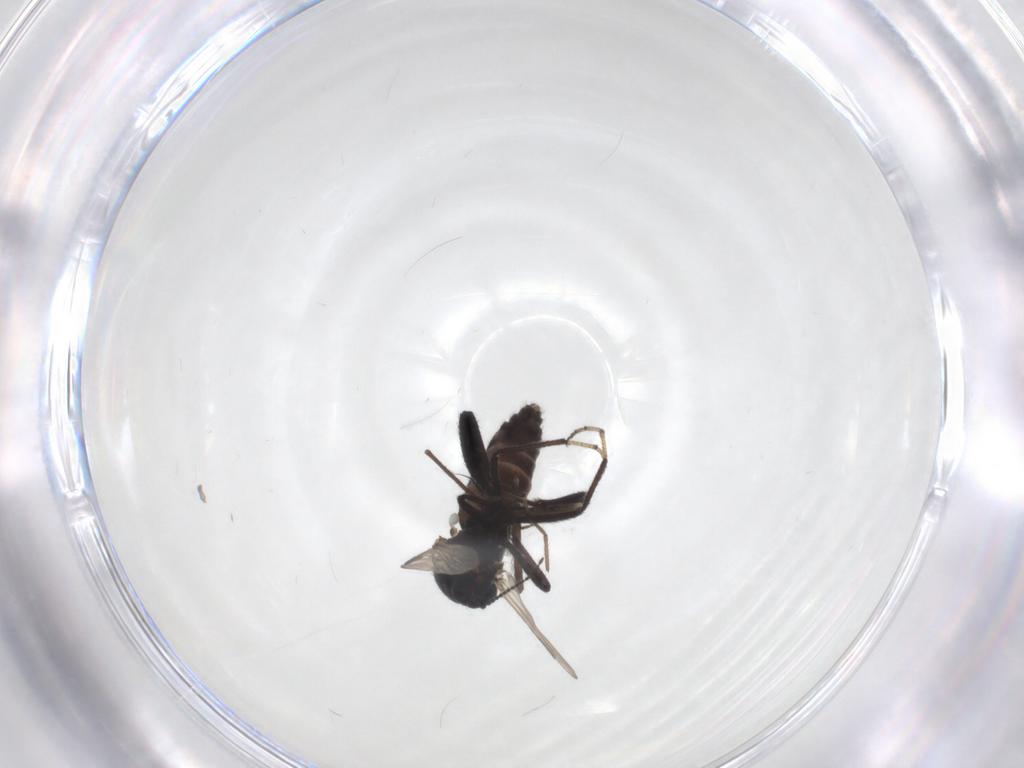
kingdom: Animalia
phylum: Arthropoda
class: Insecta
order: Diptera
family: Ceratopogonidae
